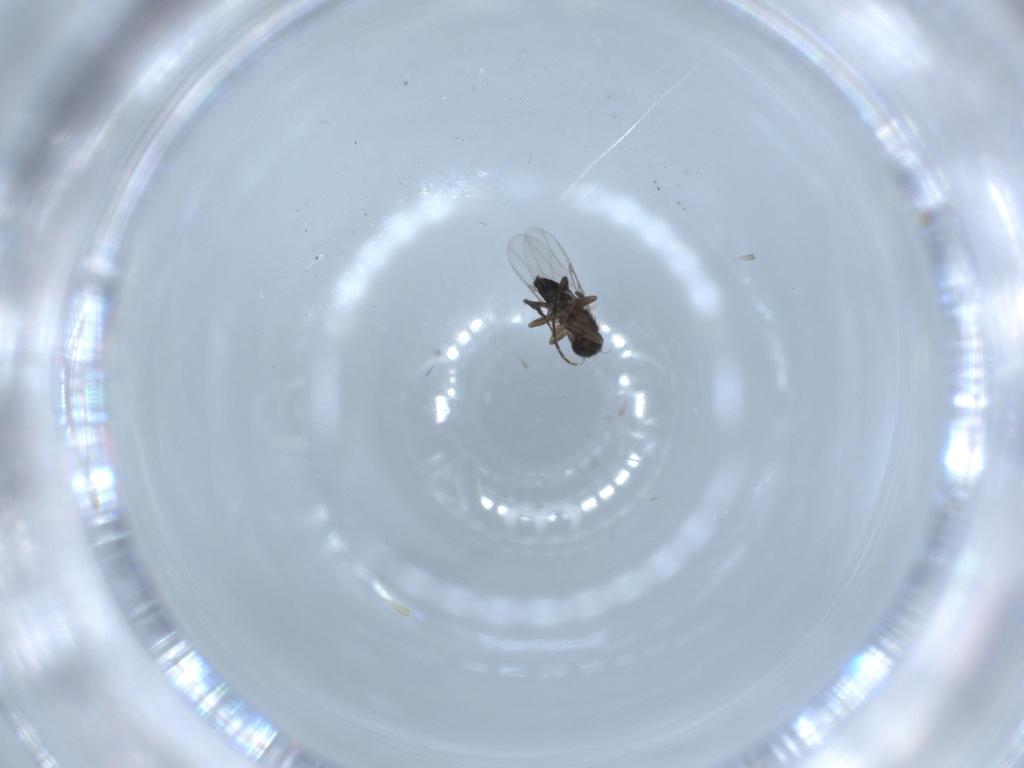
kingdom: Animalia
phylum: Arthropoda
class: Insecta
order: Diptera
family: Phoridae
